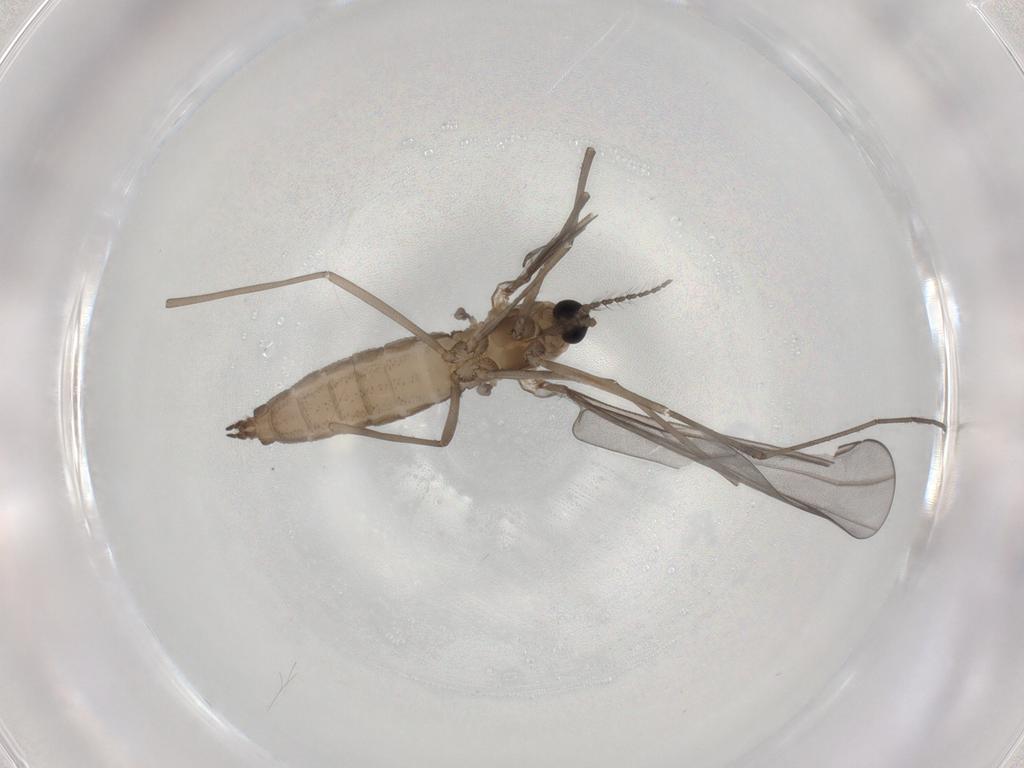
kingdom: Animalia
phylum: Arthropoda
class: Insecta
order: Diptera
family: Cecidomyiidae
